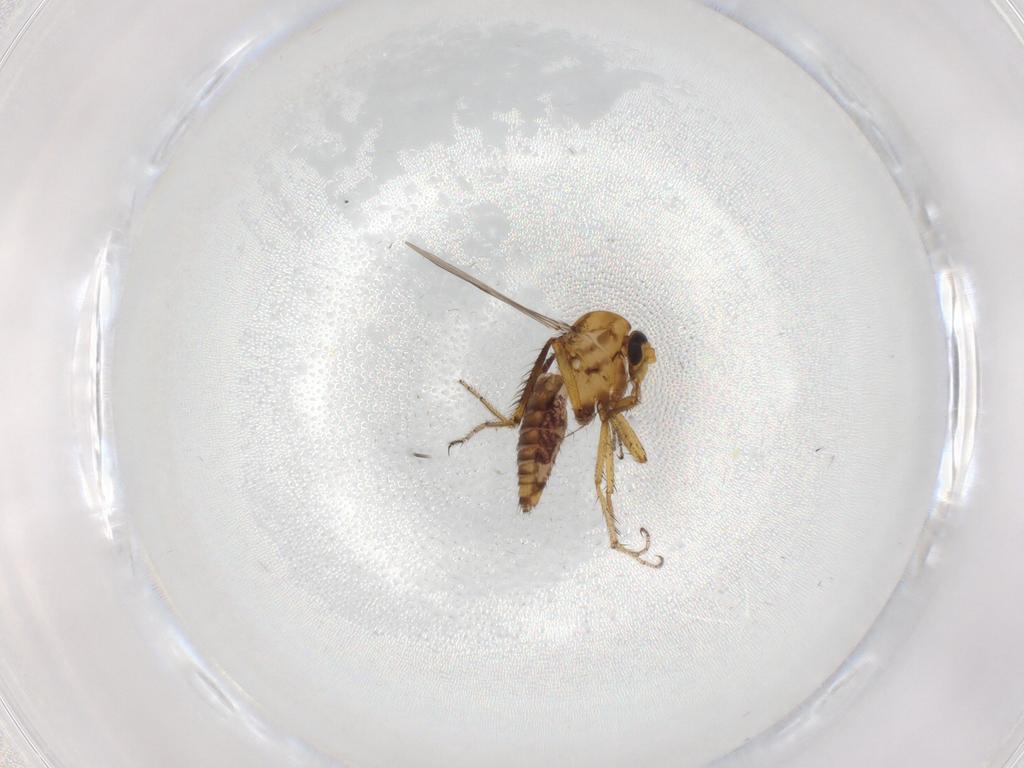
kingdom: Animalia
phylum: Arthropoda
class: Insecta
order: Diptera
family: Ceratopogonidae
